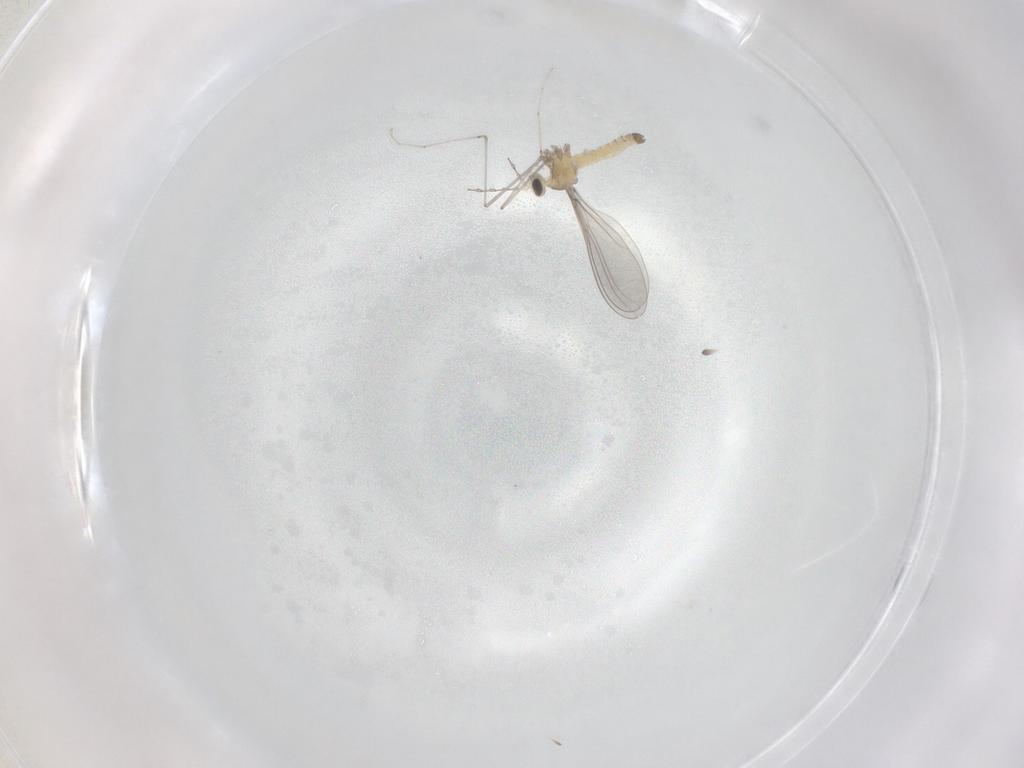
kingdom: Animalia
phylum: Arthropoda
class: Insecta
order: Diptera
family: Cecidomyiidae
